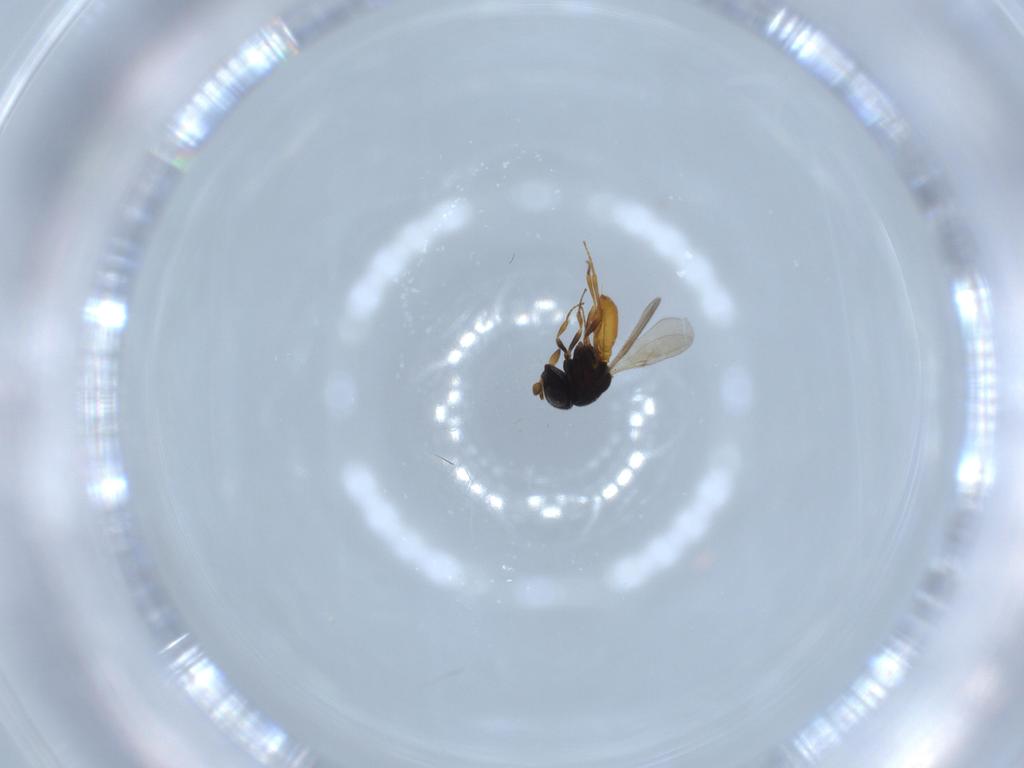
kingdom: Animalia
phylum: Arthropoda
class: Insecta
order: Hymenoptera
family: Scelionidae
